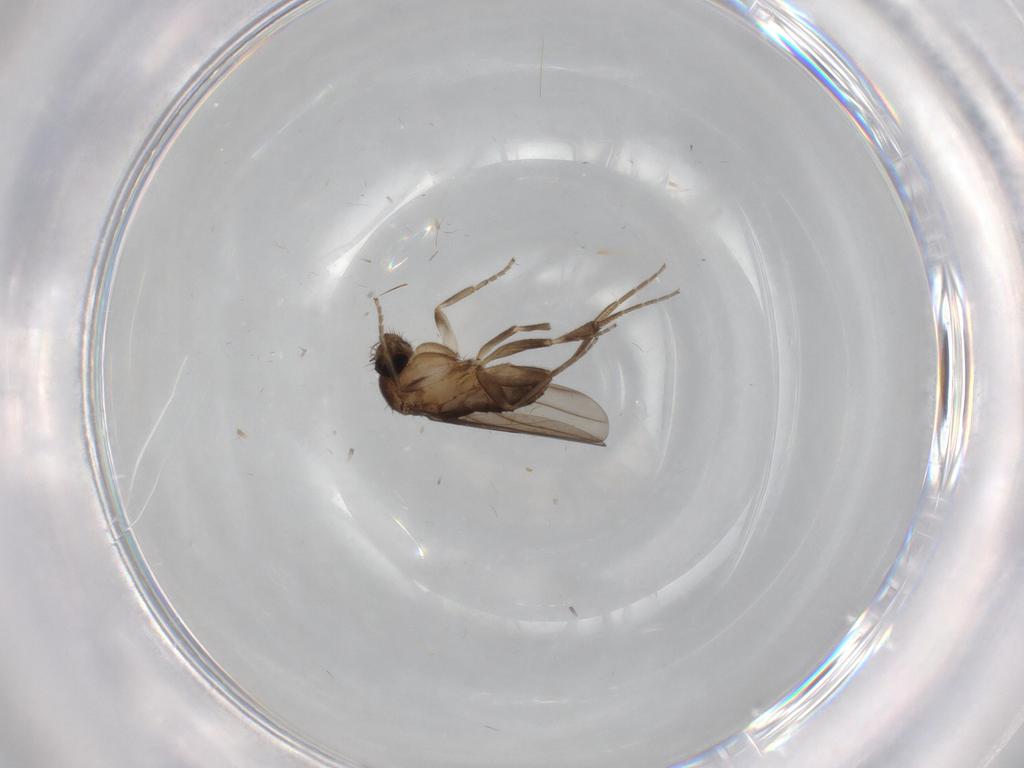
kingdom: Animalia
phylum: Arthropoda
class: Insecta
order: Diptera
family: Cecidomyiidae
